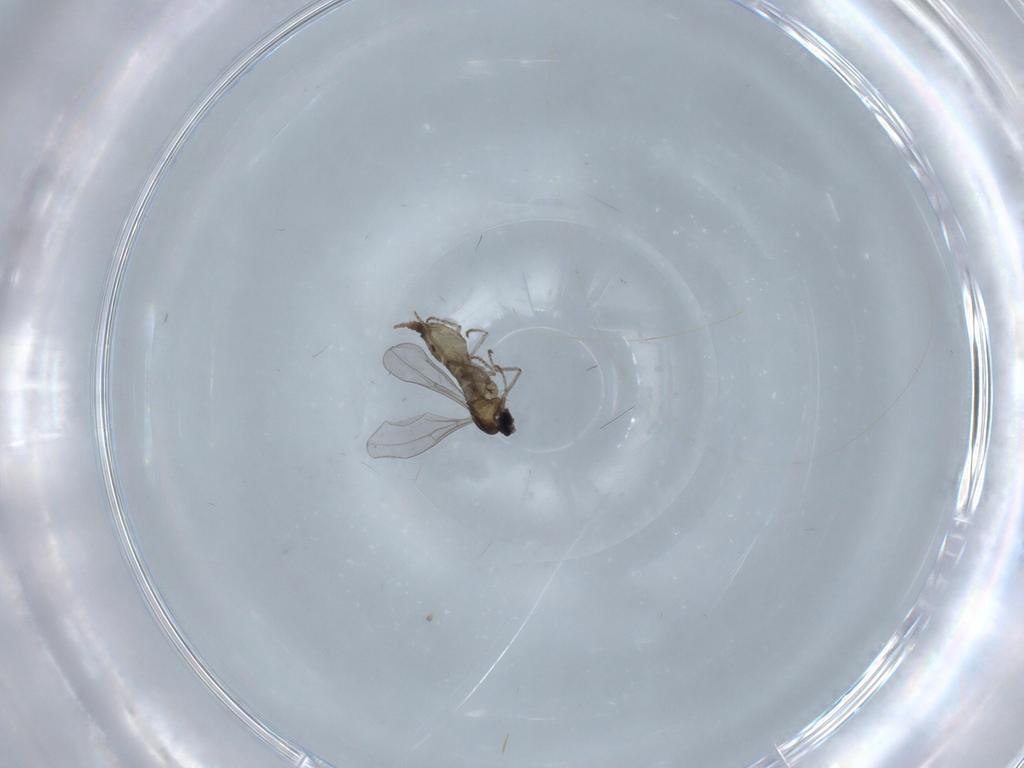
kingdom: Animalia
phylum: Arthropoda
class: Insecta
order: Diptera
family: Cecidomyiidae
